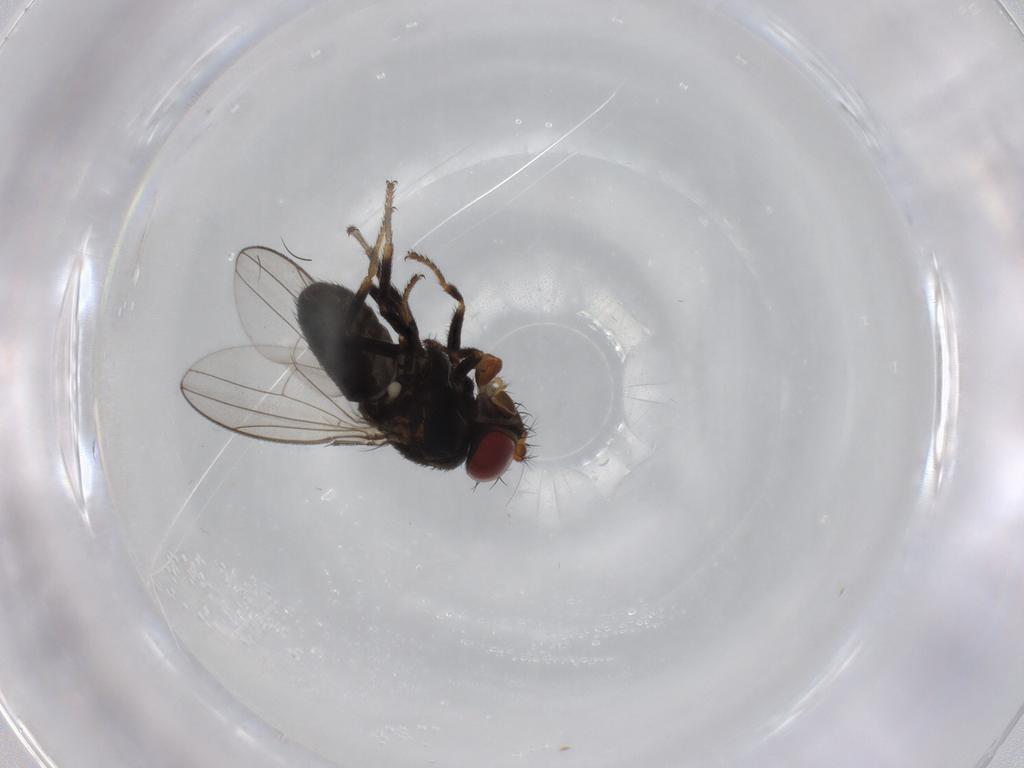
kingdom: Animalia
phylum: Arthropoda
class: Insecta
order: Diptera
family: Ephydridae
